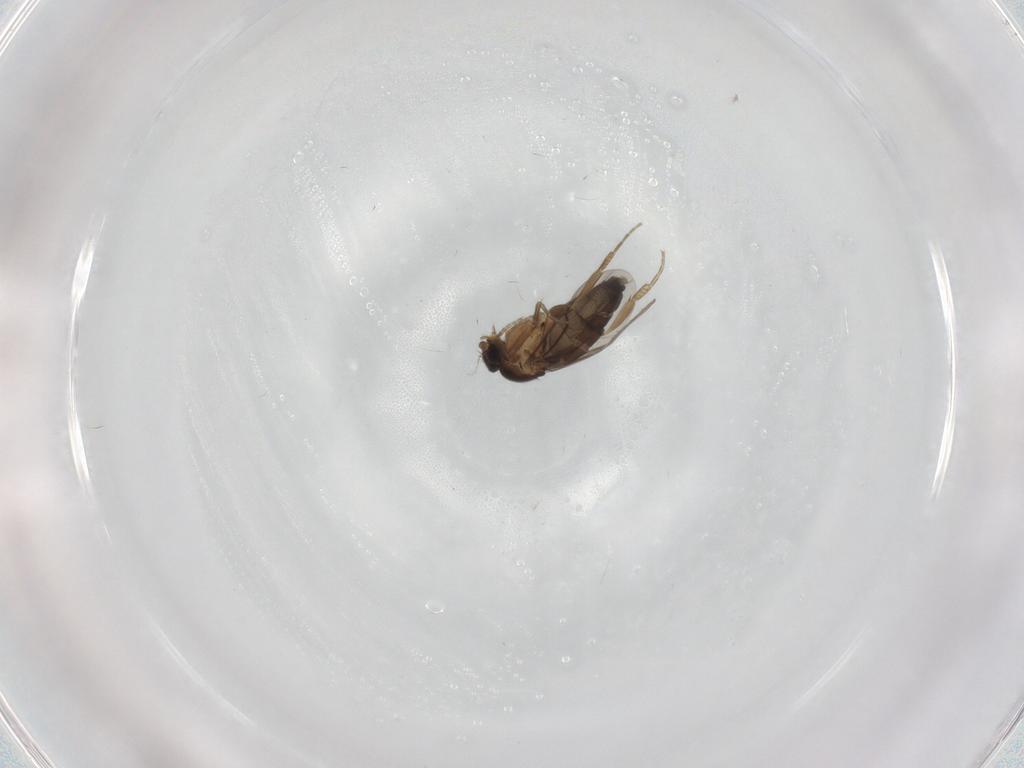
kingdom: Animalia
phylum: Arthropoda
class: Insecta
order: Diptera
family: Phoridae
